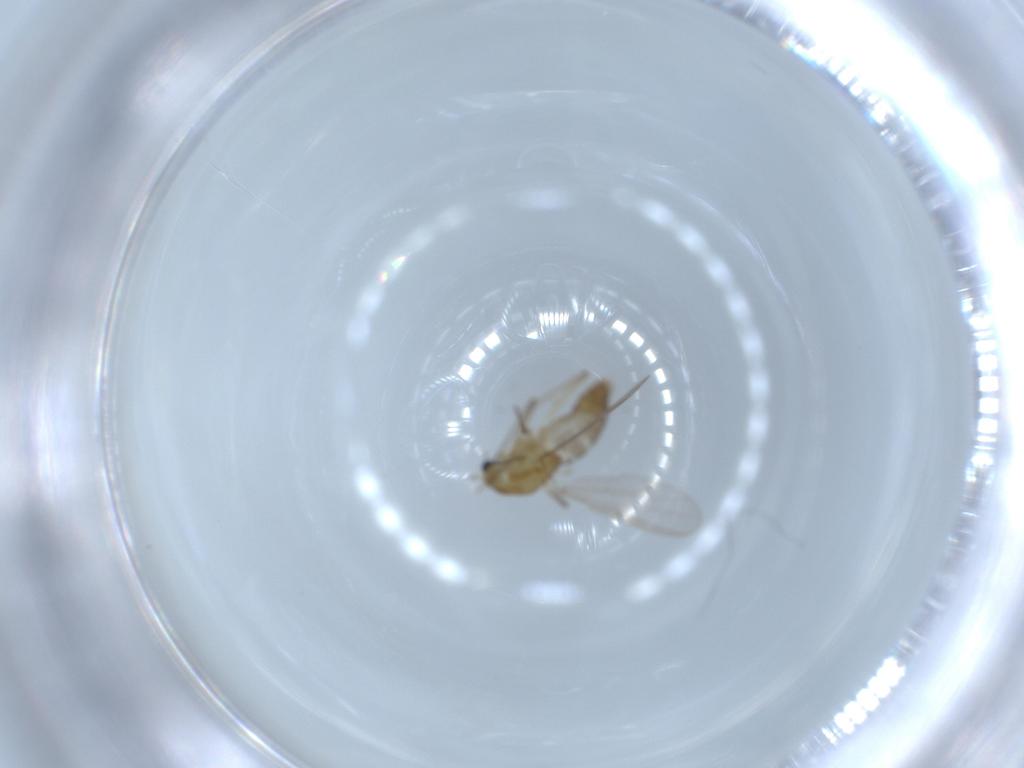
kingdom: Animalia
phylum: Arthropoda
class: Insecta
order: Diptera
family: Chironomidae
